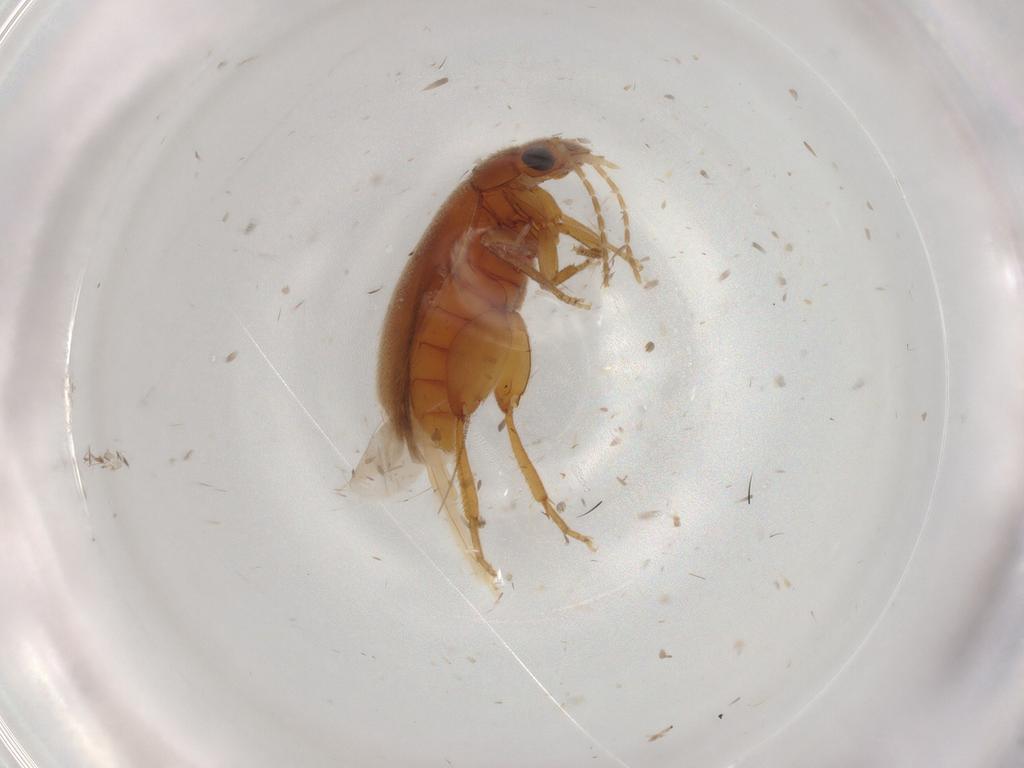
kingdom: Animalia
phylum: Arthropoda
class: Insecta
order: Coleoptera
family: Scirtidae
